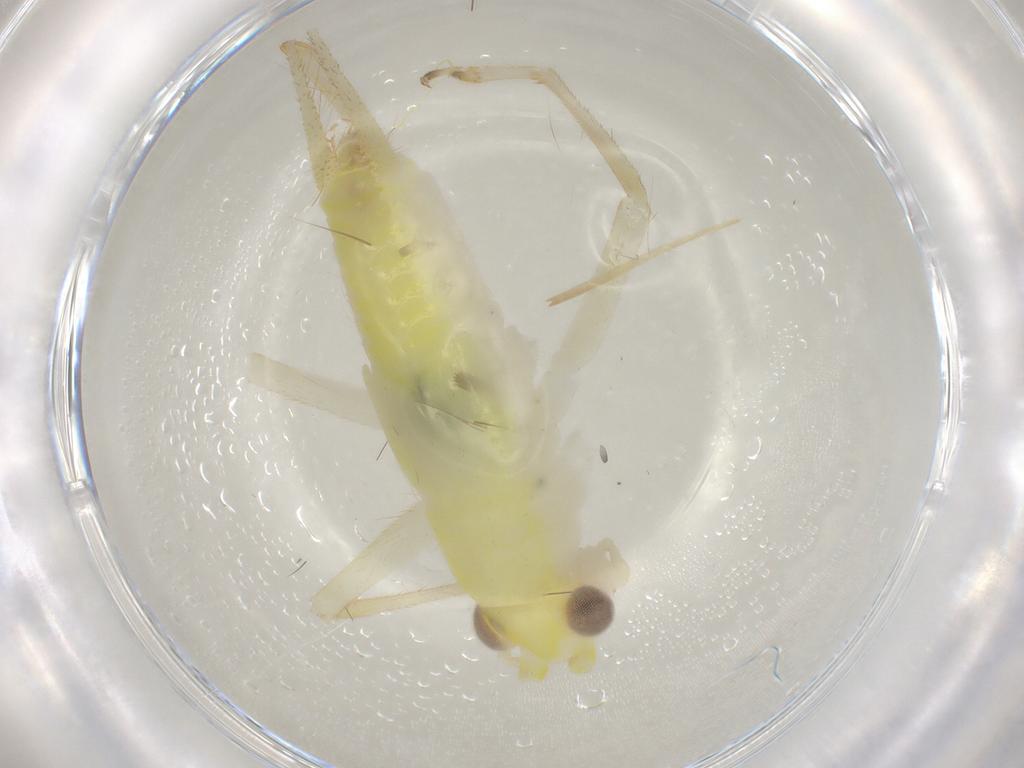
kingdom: Animalia
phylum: Arthropoda
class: Insecta
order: Orthoptera
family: Trigonidiidae
